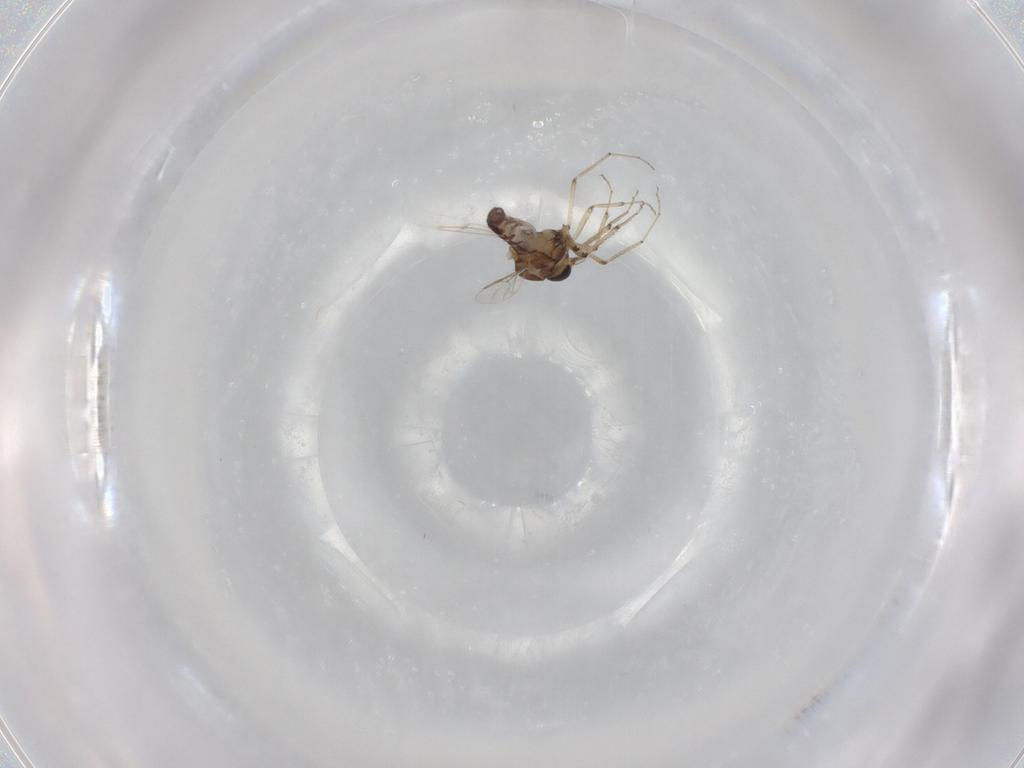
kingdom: Animalia
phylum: Arthropoda
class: Insecta
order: Diptera
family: Ceratopogonidae
